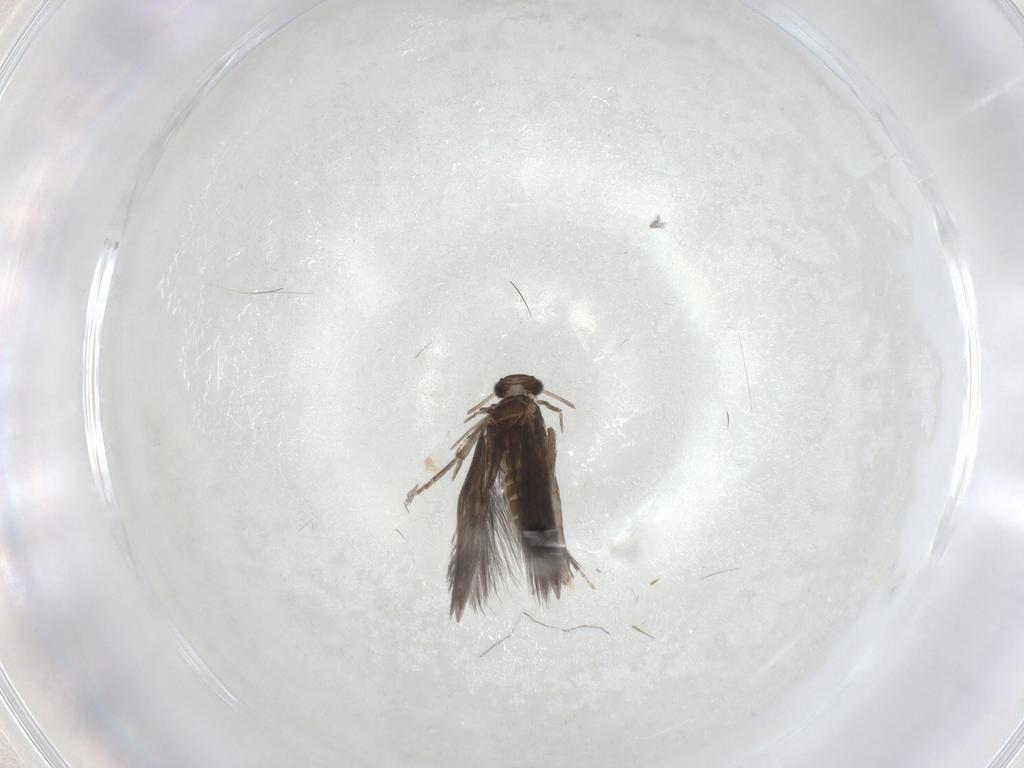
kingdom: Animalia
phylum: Arthropoda
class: Insecta
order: Trichoptera
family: Hydroptilidae
